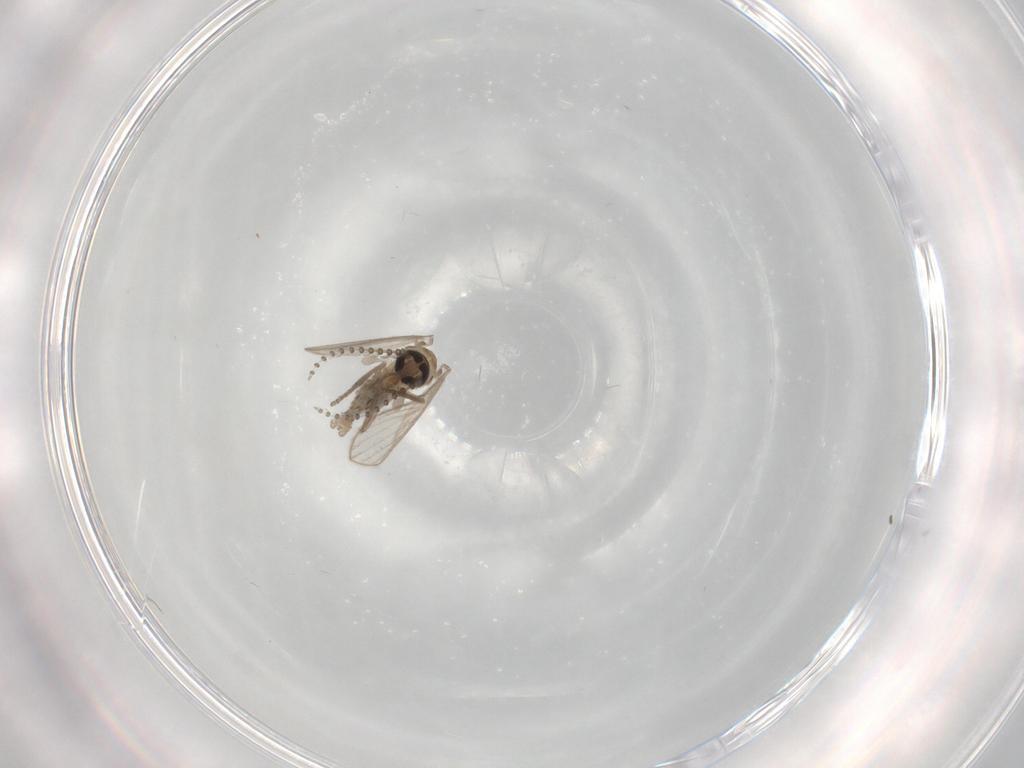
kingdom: Animalia
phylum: Arthropoda
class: Insecta
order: Diptera
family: Psychodidae
